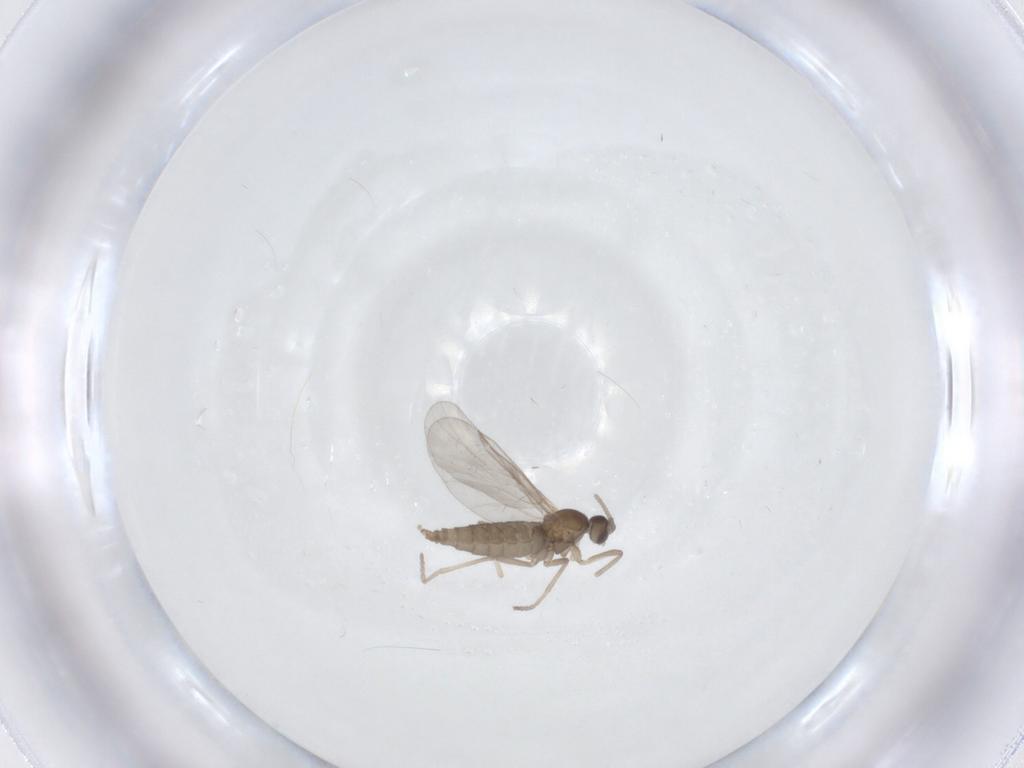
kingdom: Animalia
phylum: Arthropoda
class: Insecta
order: Diptera
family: Cecidomyiidae
